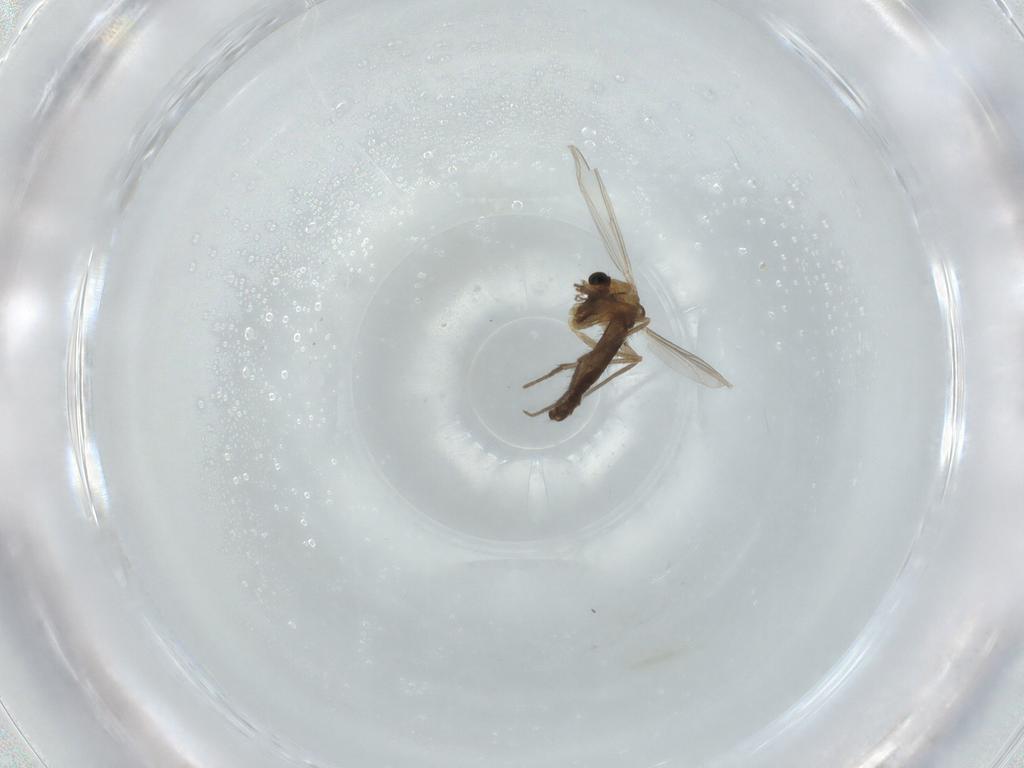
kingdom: Animalia
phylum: Arthropoda
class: Insecta
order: Diptera
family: Chironomidae
